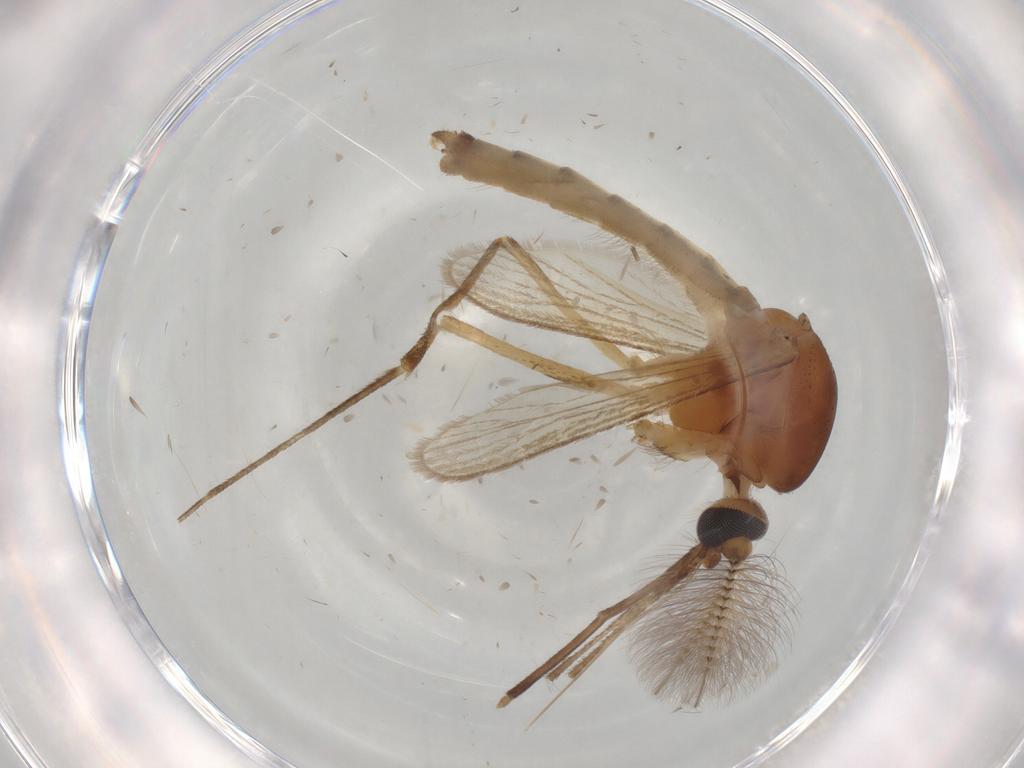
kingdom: Animalia
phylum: Arthropoda
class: Insecta
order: Diptera
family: Ceratopogonidae
